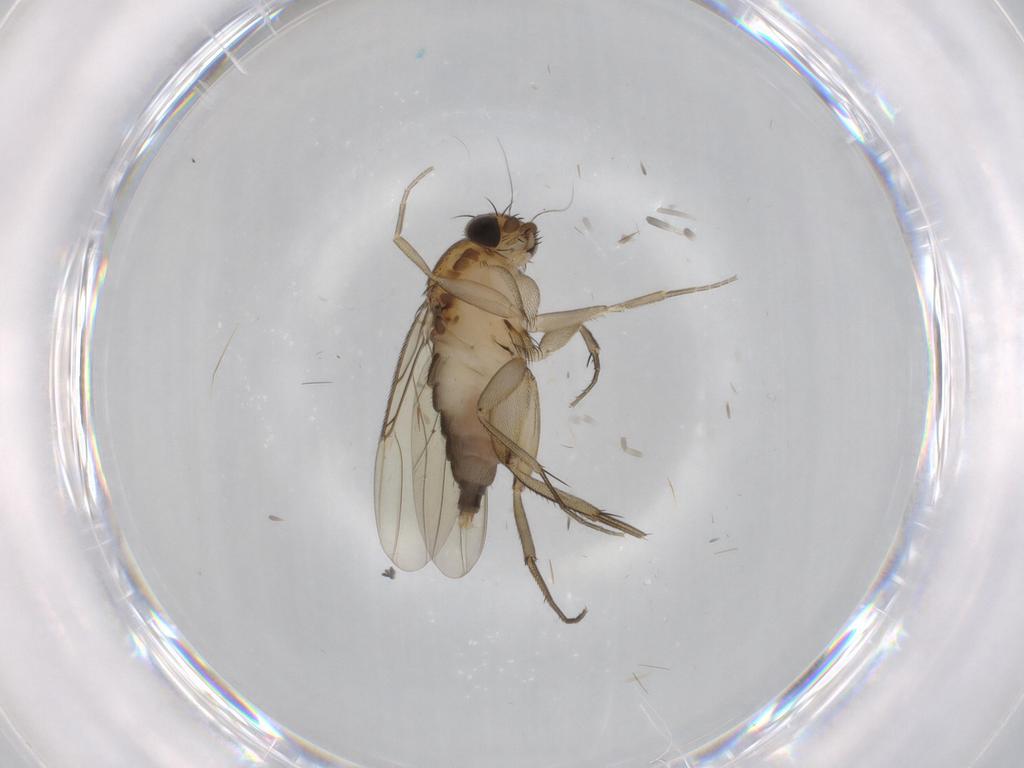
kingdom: Animalia
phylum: Arthropoda
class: Insecta
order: Diptera
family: Phoridae
